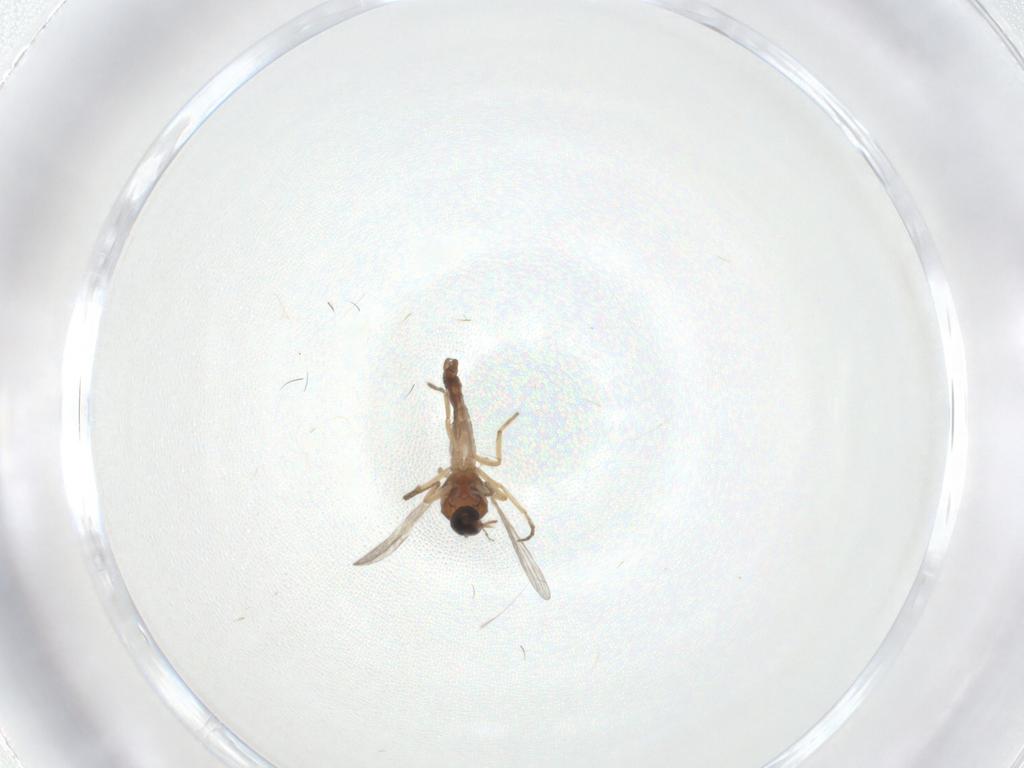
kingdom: Animalia
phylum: Arthropoda
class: Insecta
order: Diptera
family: Ceratopogonidae
